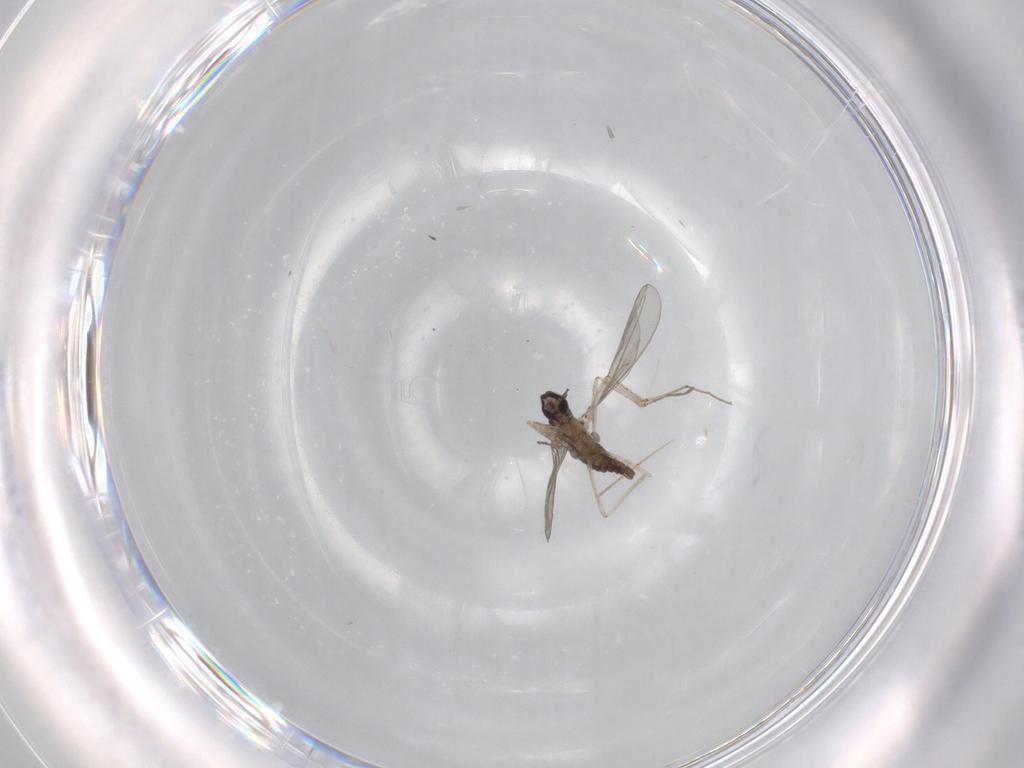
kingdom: Animalia
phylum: Arthropoda
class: Insecta
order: Diptera
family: Cecidomyiidae
